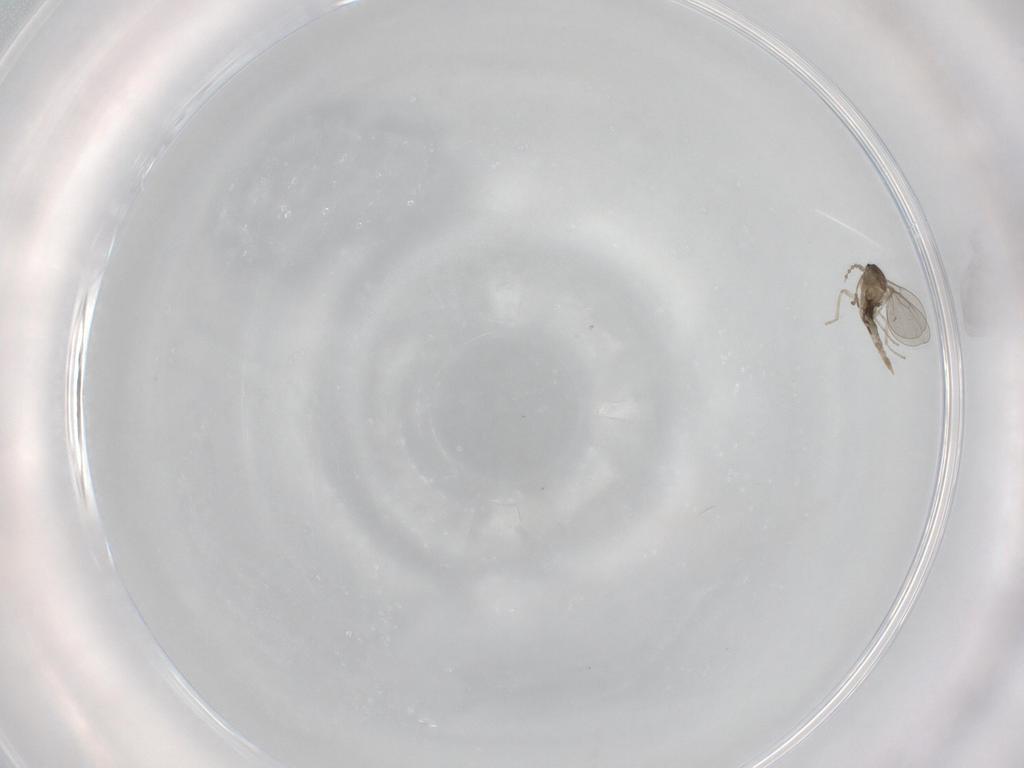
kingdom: Animalia
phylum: Arthropoda
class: Insecta
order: Diptera
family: Cecidomyiidae
